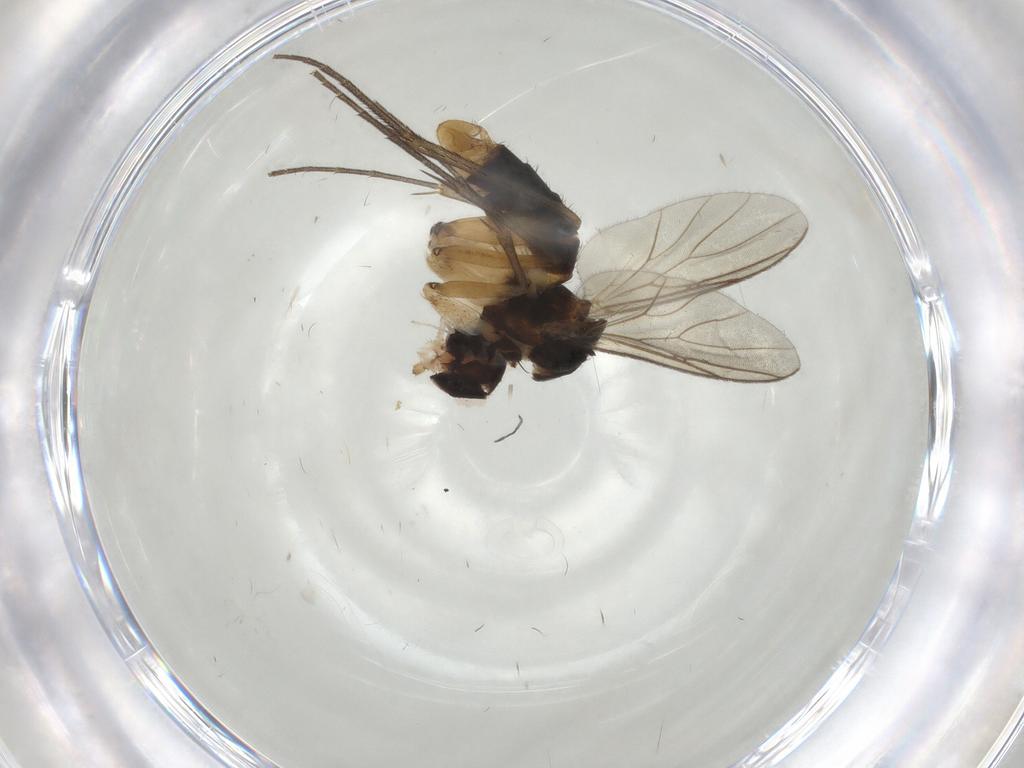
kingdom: Animalia
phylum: Arthropoda
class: Insecta
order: Diptera
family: Mycetophilidae
